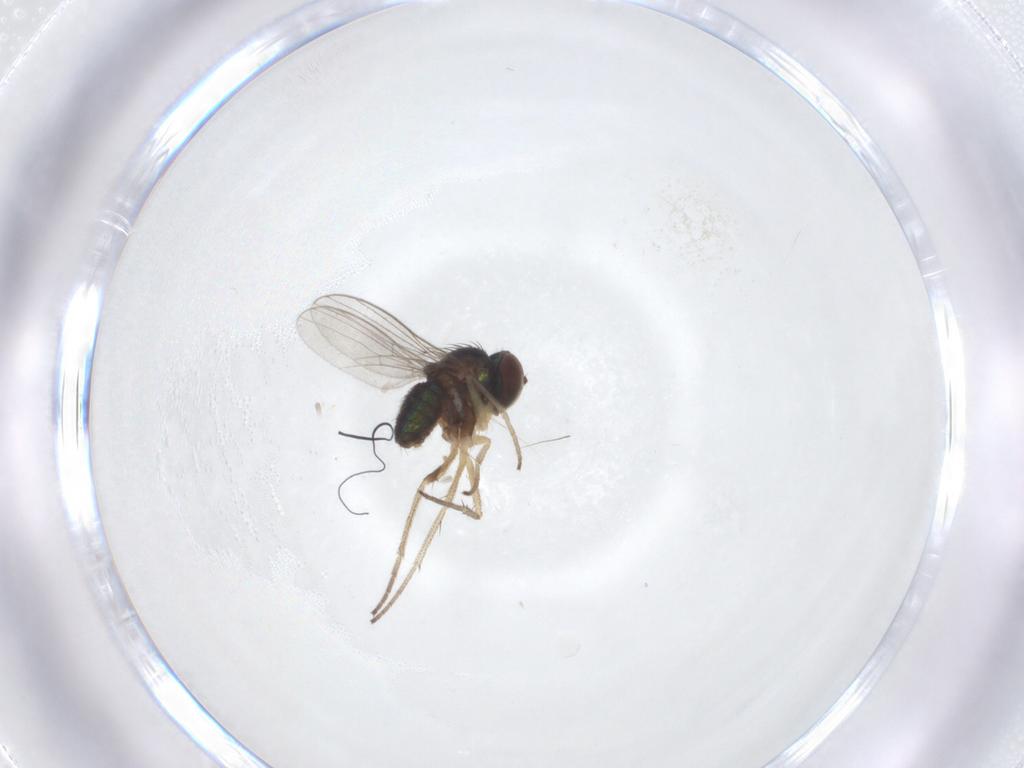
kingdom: Animalia
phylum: Arthropoda
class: Insecta
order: Diptera
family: Dolichopodidae
